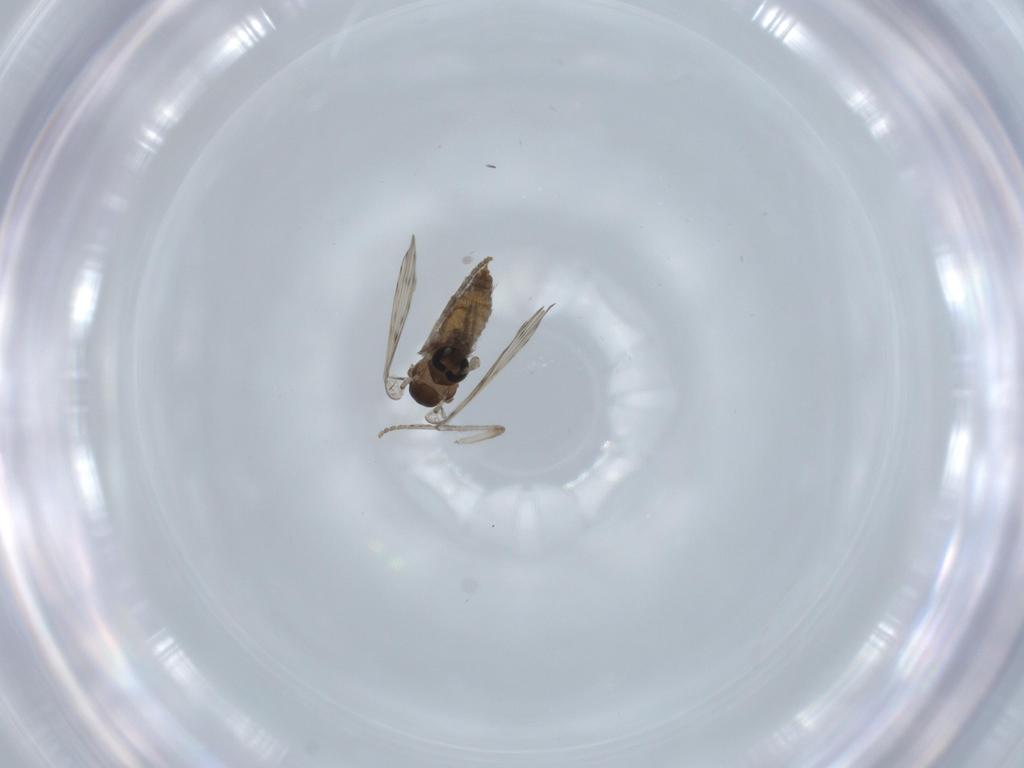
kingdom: Animalia
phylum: Arthropoda
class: Insecta
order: Diptera
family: Psychodidae
